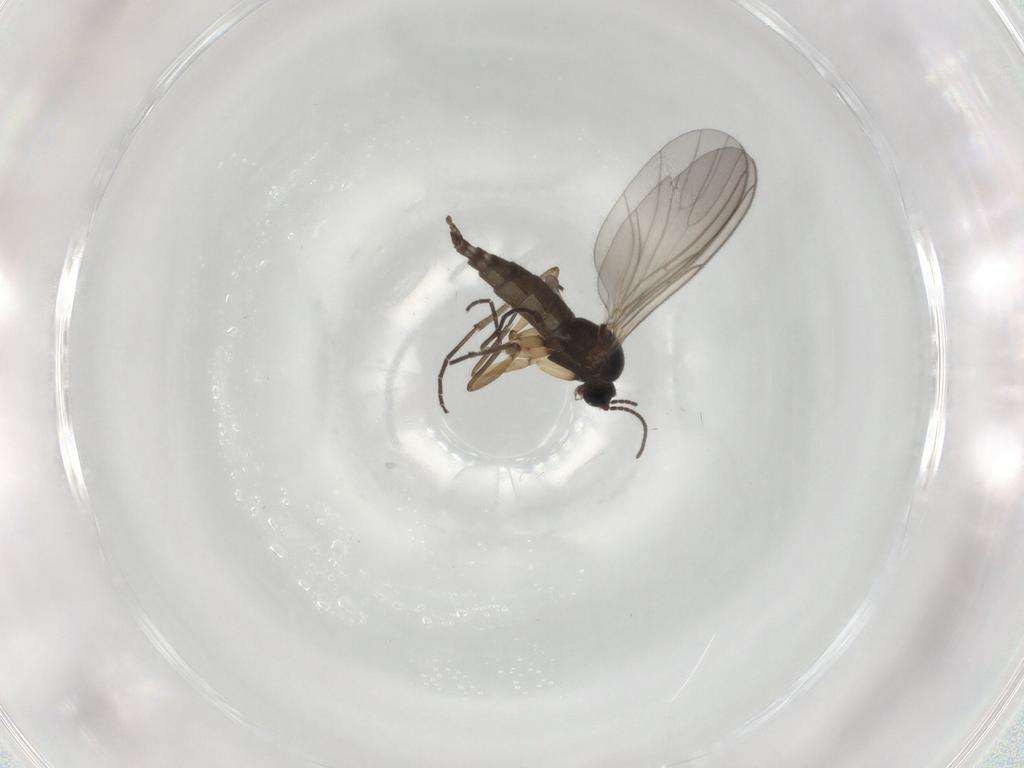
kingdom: Animalia
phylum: Arthropoda
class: Insecta
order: Diptera
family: Sciaridae
